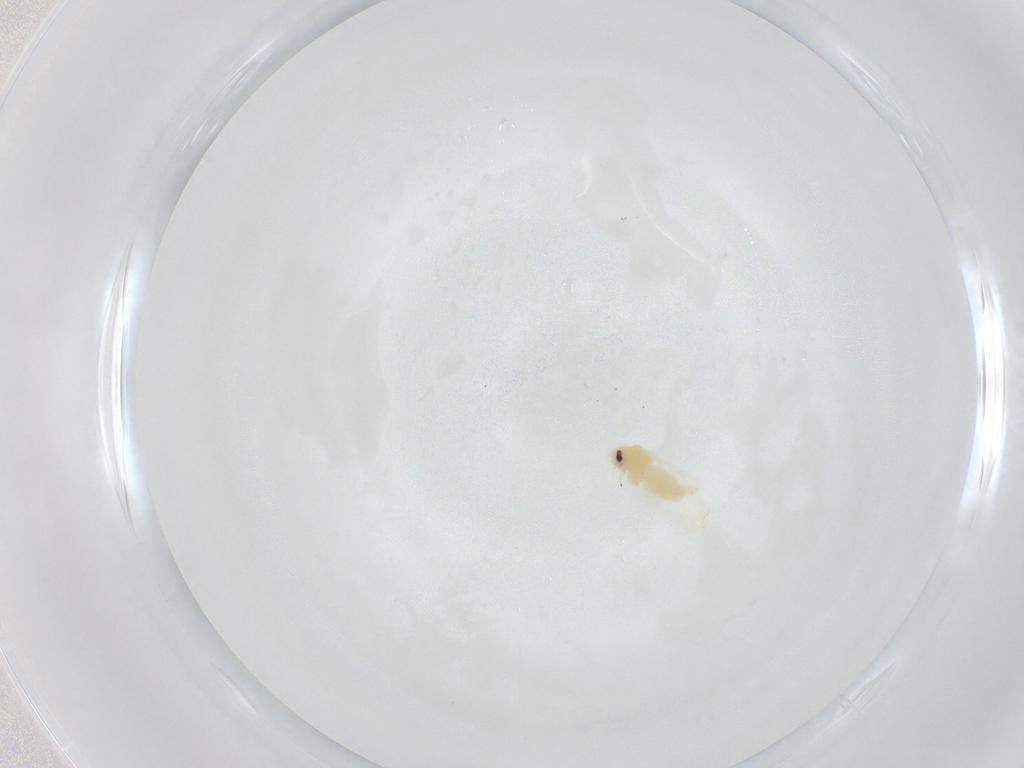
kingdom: Animalia
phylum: Arthropoda
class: Insecta
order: Hemiptera
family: Aleyrodidae
